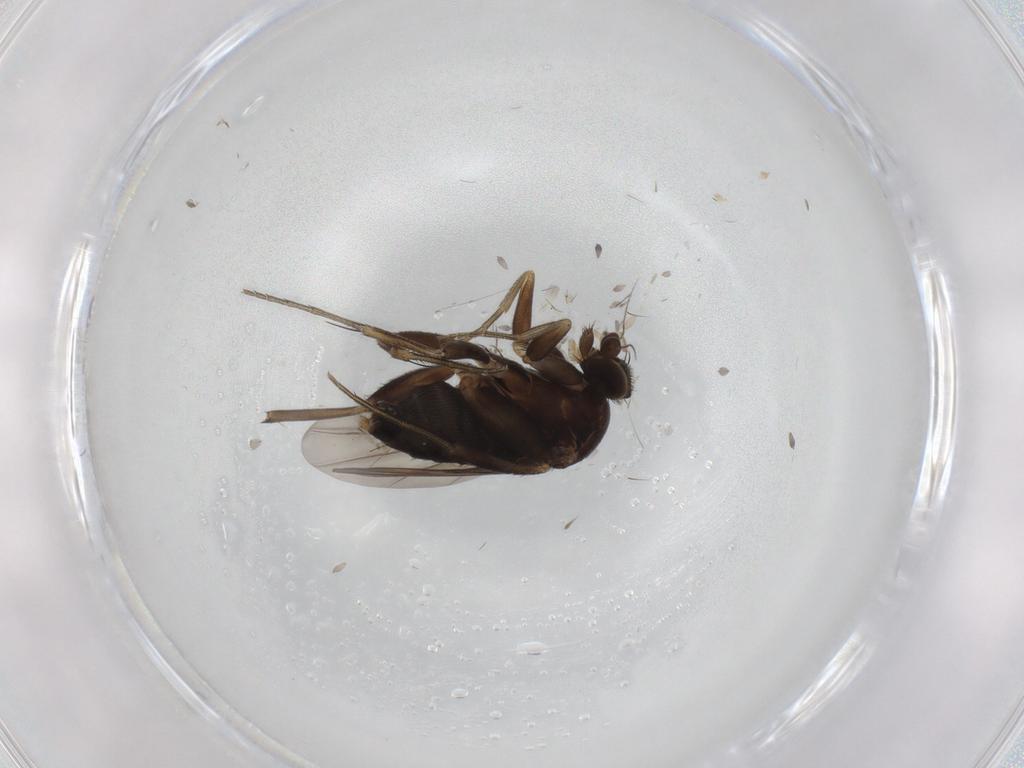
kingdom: Animalia
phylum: Arthropoda
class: Insecta
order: Diptera
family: Phoridae
